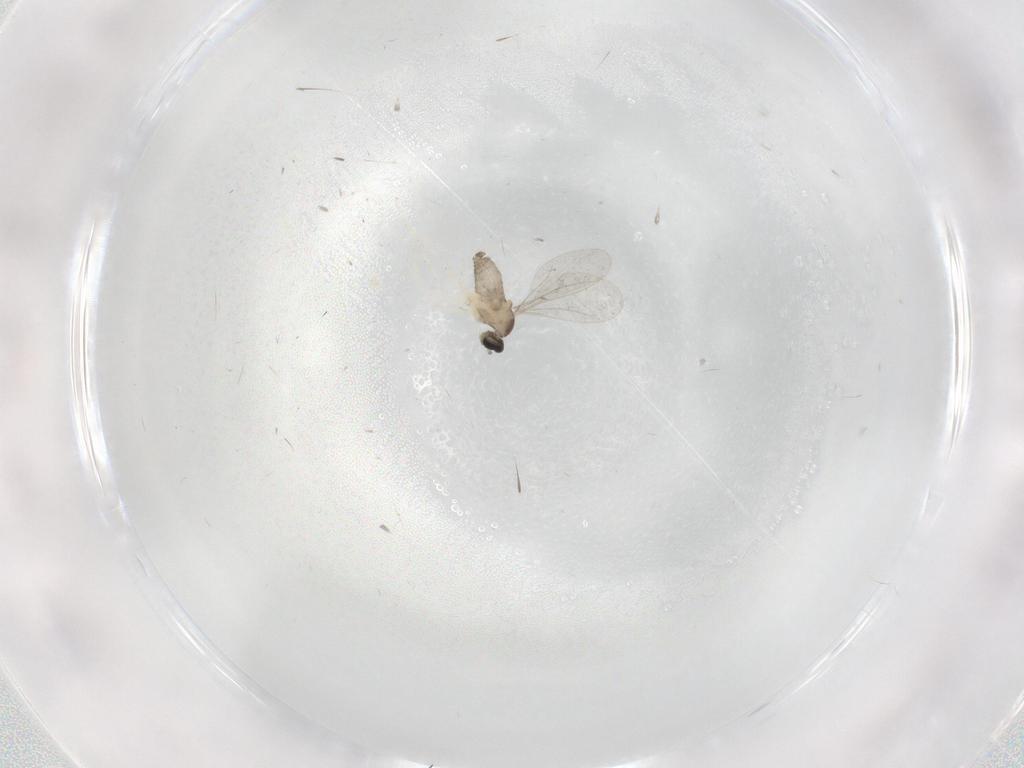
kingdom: Animalia
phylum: Arthropoda
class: Insecta
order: Diptera
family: Cecidomyiidae
